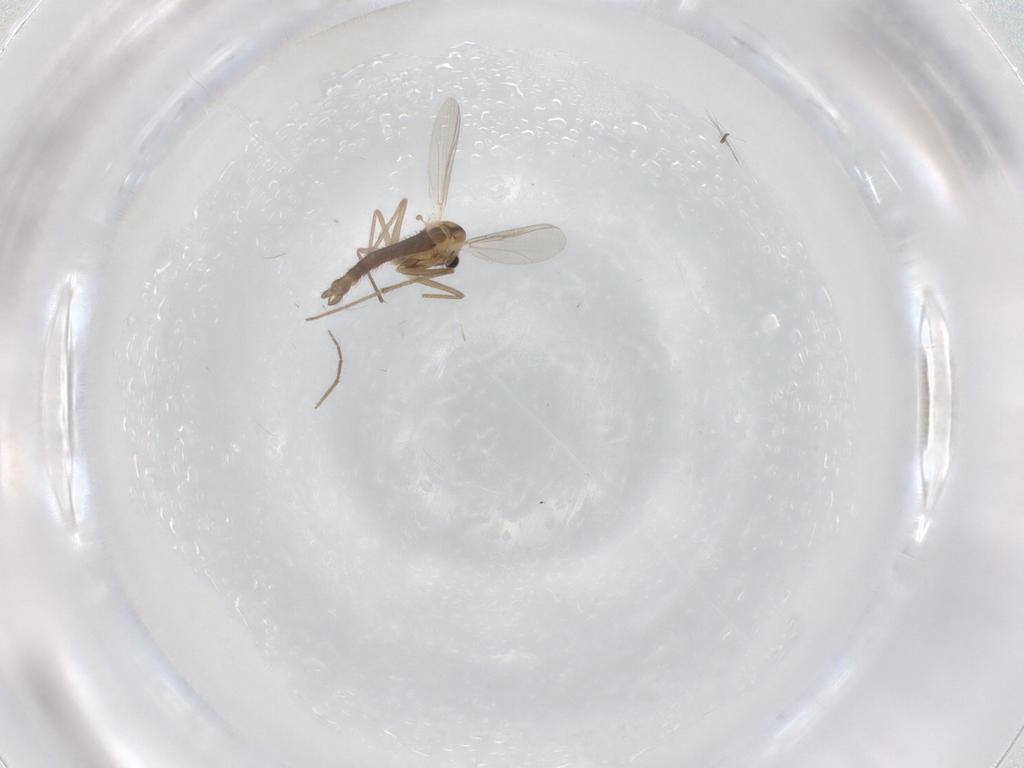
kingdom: Animalia
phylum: Arthropoda
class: Insecta
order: Diptera
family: Chironomidae
